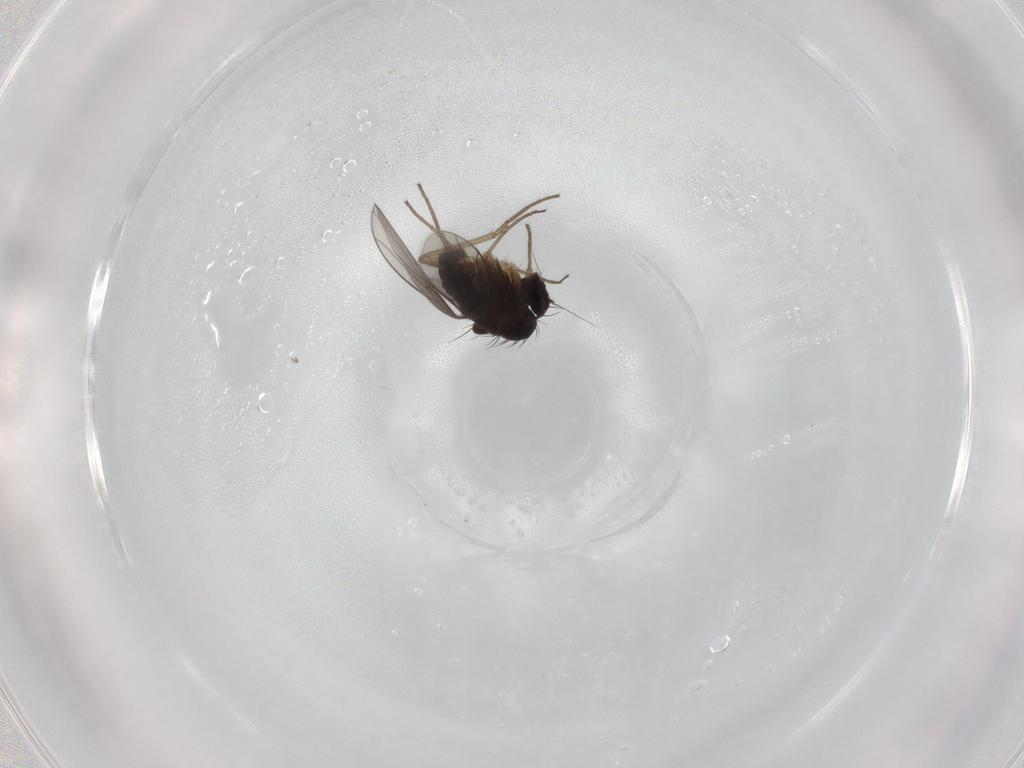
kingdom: Animalia
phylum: Arthropoda
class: Insecta
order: Diptera
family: Dolichopodidae
